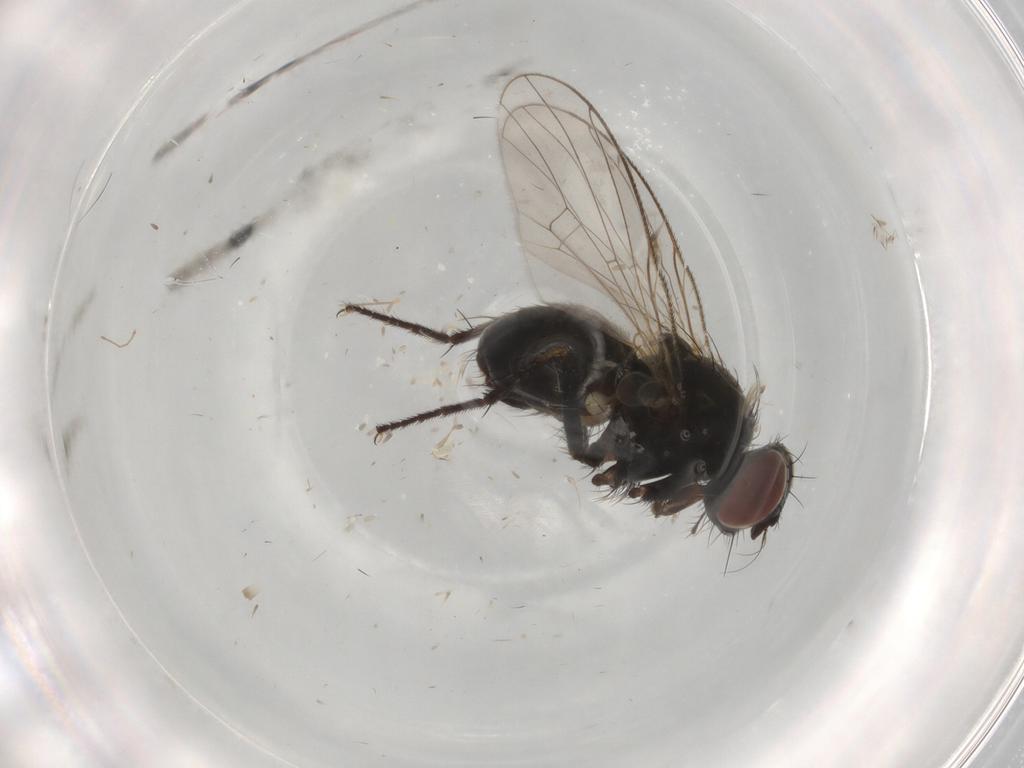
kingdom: Animalia
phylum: Arthropoda
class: Insecta
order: Diptera
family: Muscidae
